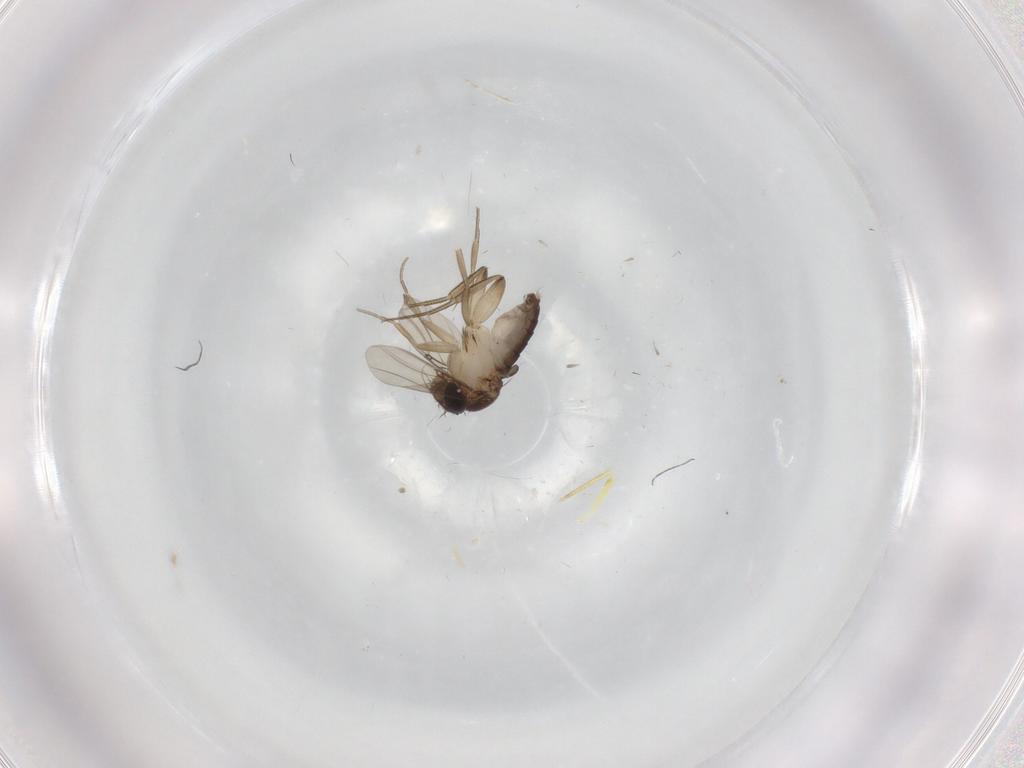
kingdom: Animalia
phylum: Arthropoda
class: Insecta
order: Diptera
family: Phoridae
